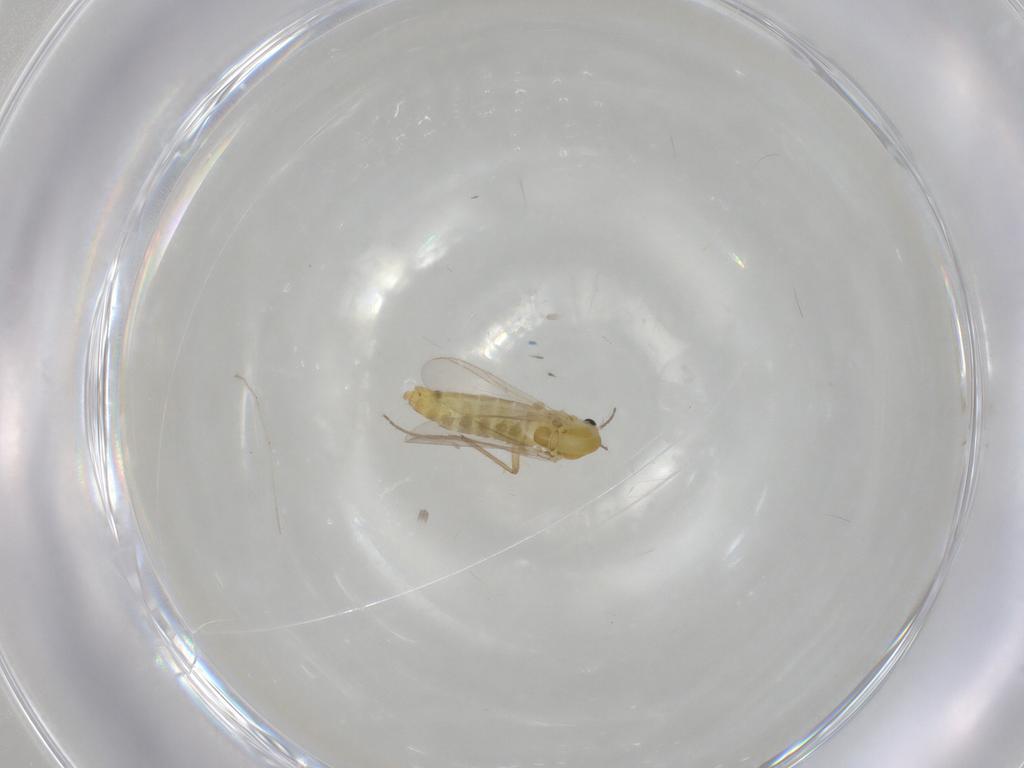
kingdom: Animalia
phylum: Arthropoda
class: Insecta
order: Diptera
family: Chironomidae
